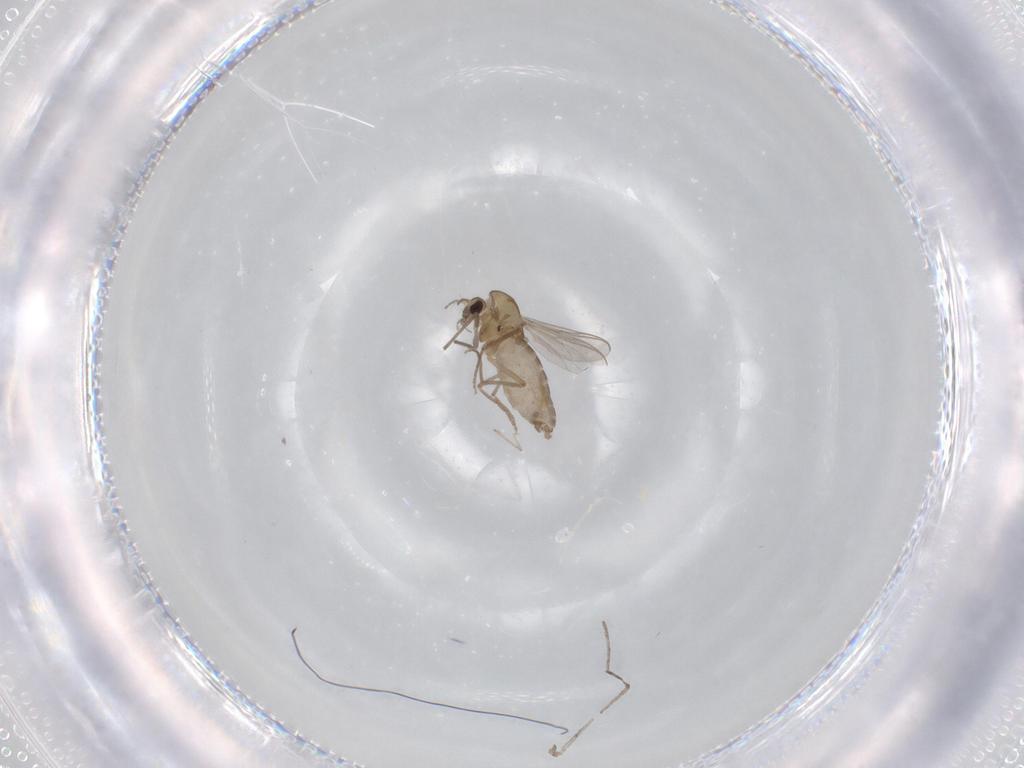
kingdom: Animalia
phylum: Arthropoda
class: Insecta
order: Diptera
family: Chironomidae
